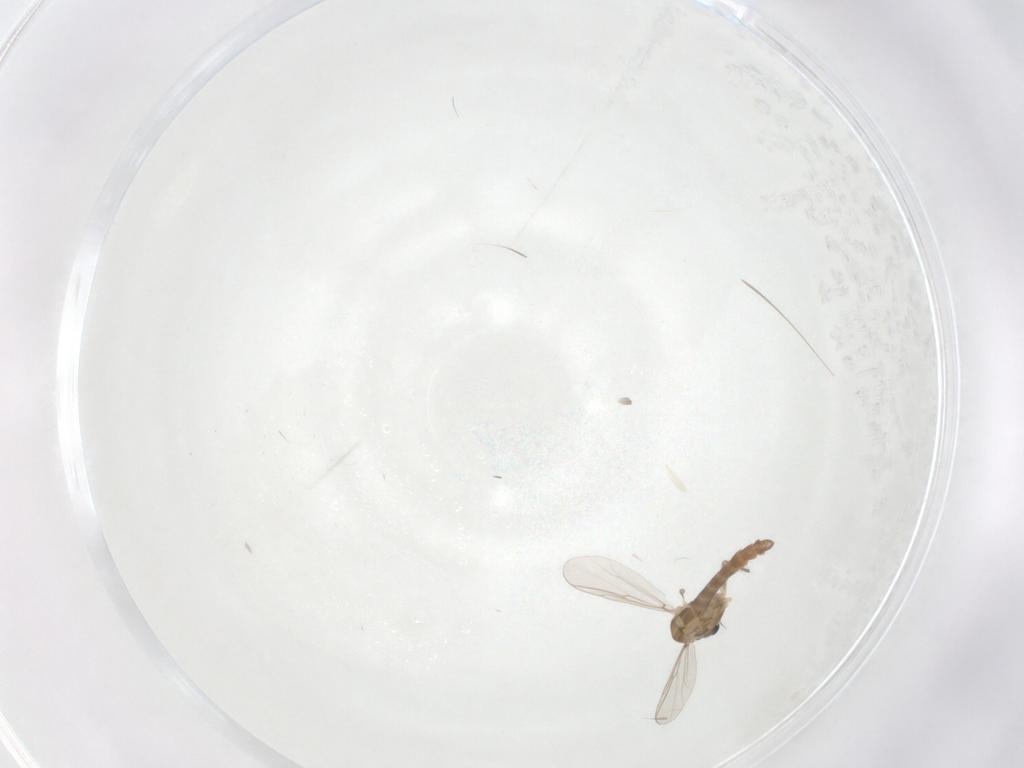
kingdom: Animalia
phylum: Arthropoda
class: Insecta
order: Diptera
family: Chironomidae
